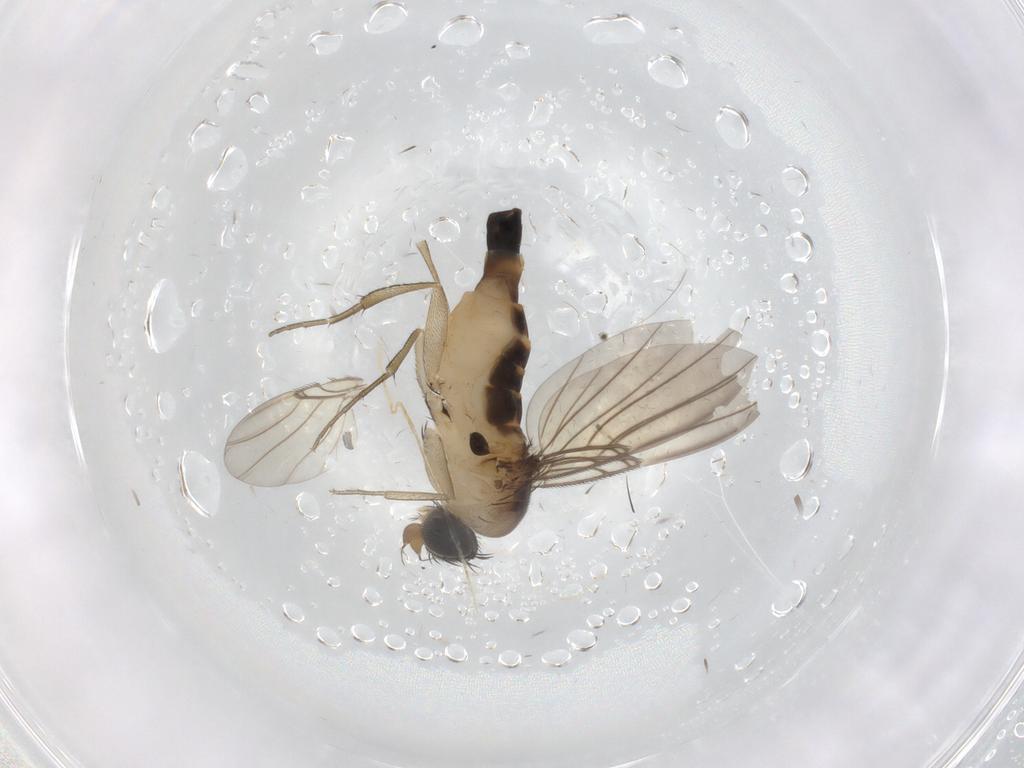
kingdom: Animalia
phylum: Arthropoda
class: Insecta
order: Diptera
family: Phoridae
